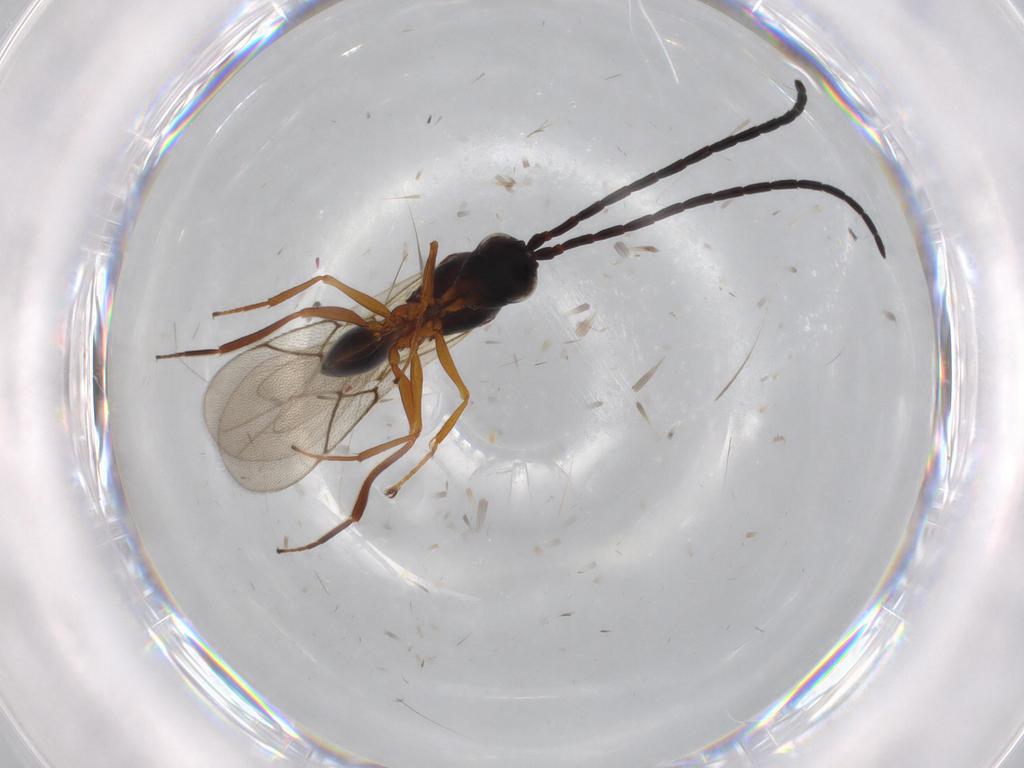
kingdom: Animalia
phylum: Arthropoda
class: Insecta
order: Hymenoptera
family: Figitidae
